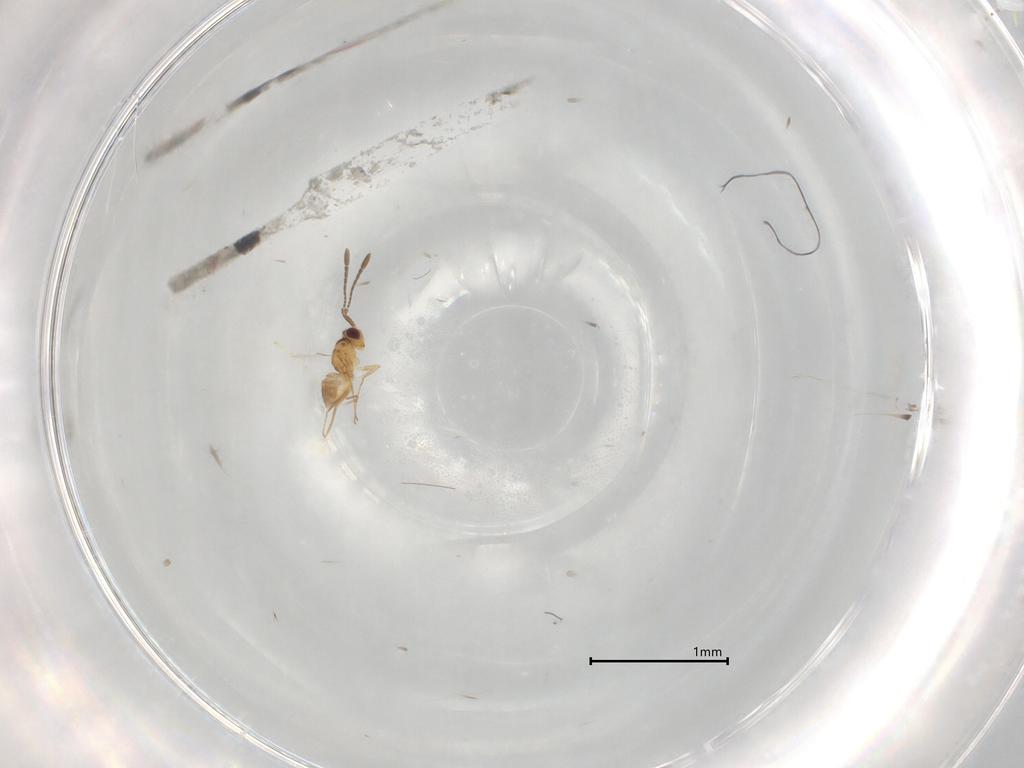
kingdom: Animalia
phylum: Arthropoda
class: Insecta
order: Hymenoptera
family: Mymaridae
